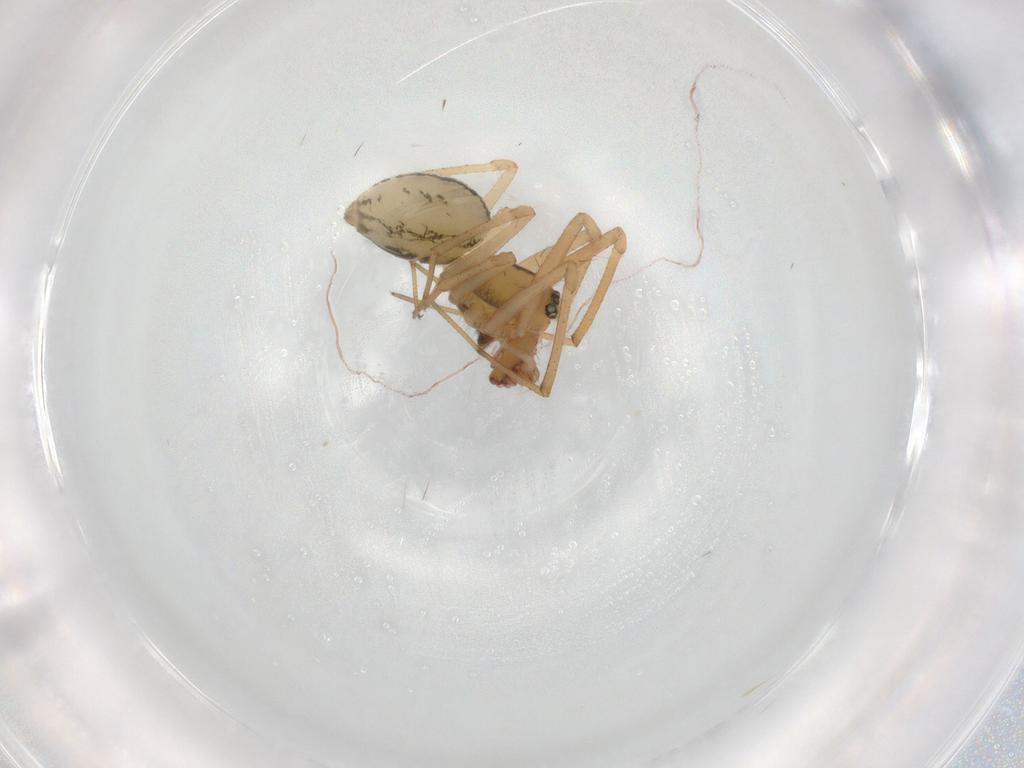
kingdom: Animalia
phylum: Arthropoda
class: Arachnida
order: Araneae
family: Linyphiidae
